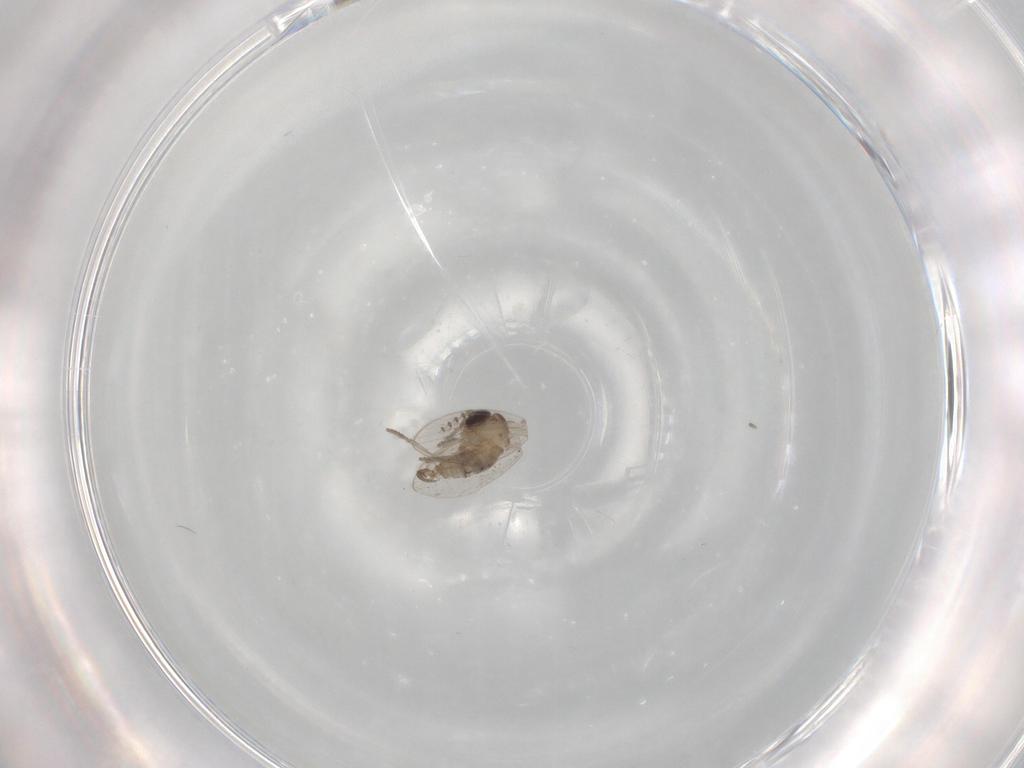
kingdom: Animalia
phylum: Arthropoda
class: Insecta
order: Diptera
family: Psychodidae
